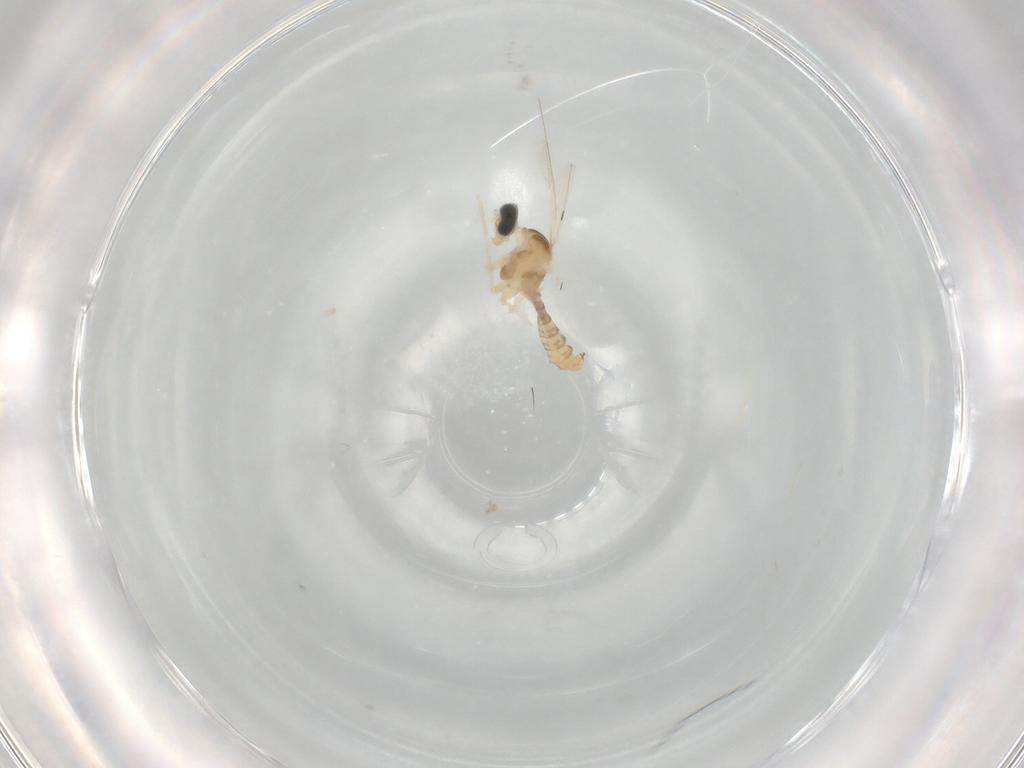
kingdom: Animalia
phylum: Arthropoda
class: Insecta
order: Diptera
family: Cecidomyiidae
